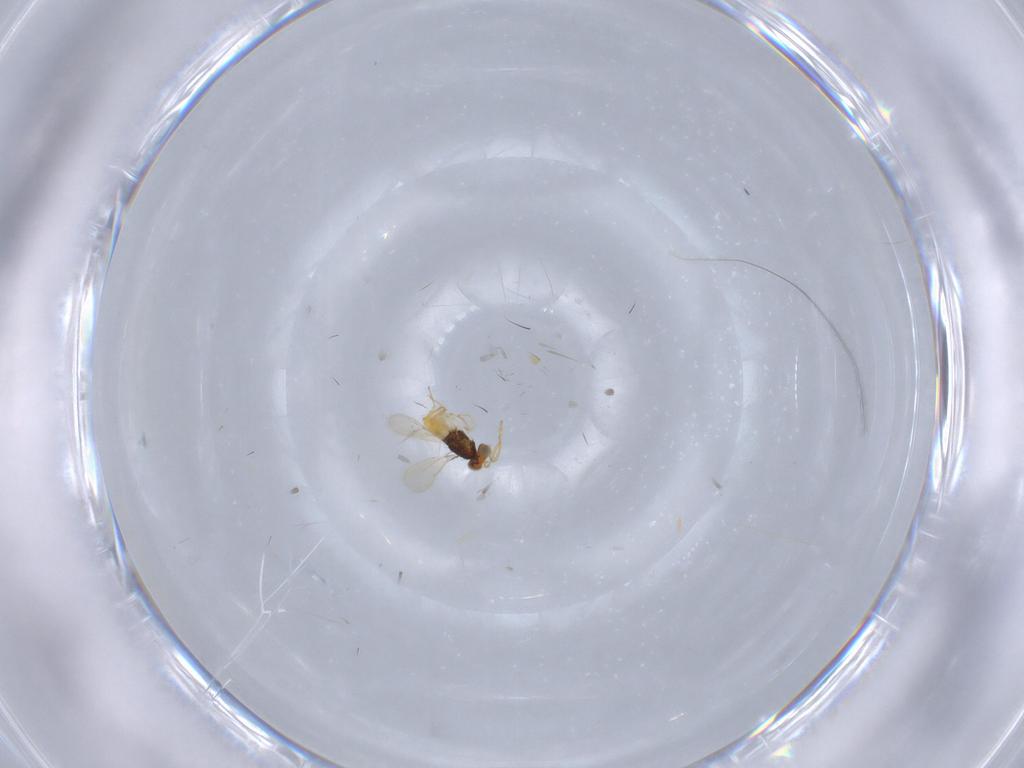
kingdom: Animalia
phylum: Arthropoda
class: Insecta
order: Hymenoptera
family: Aphelinidae
